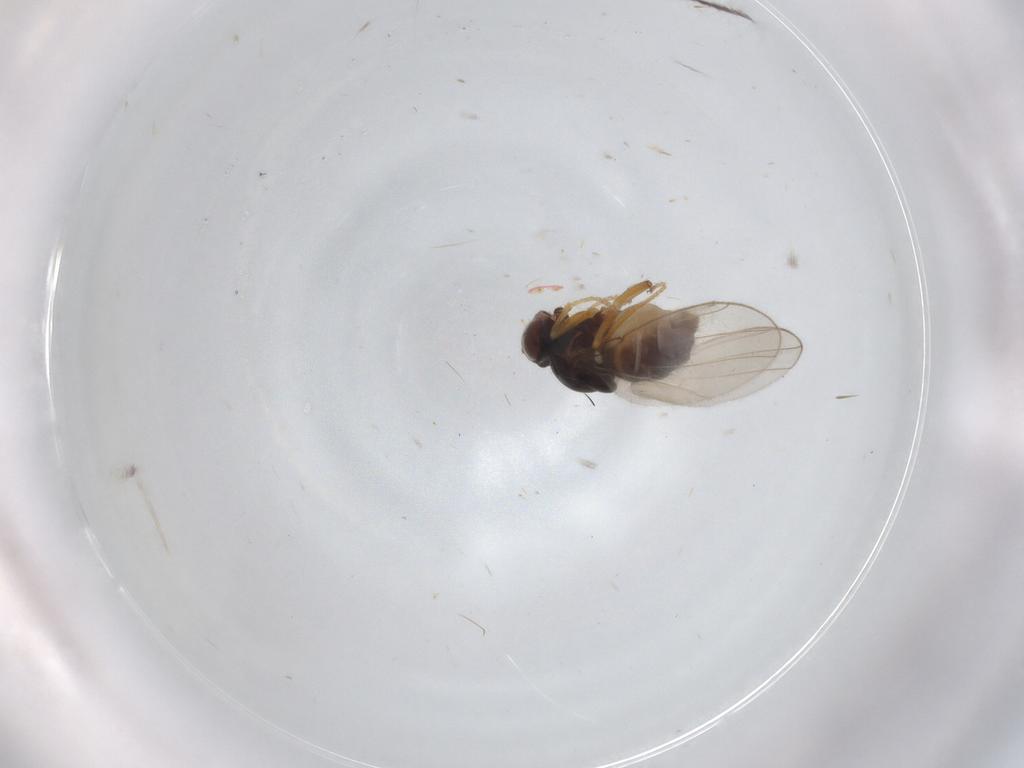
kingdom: Animalia
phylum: Arthropoda
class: Insecta
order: Diptera
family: Ephydridae
